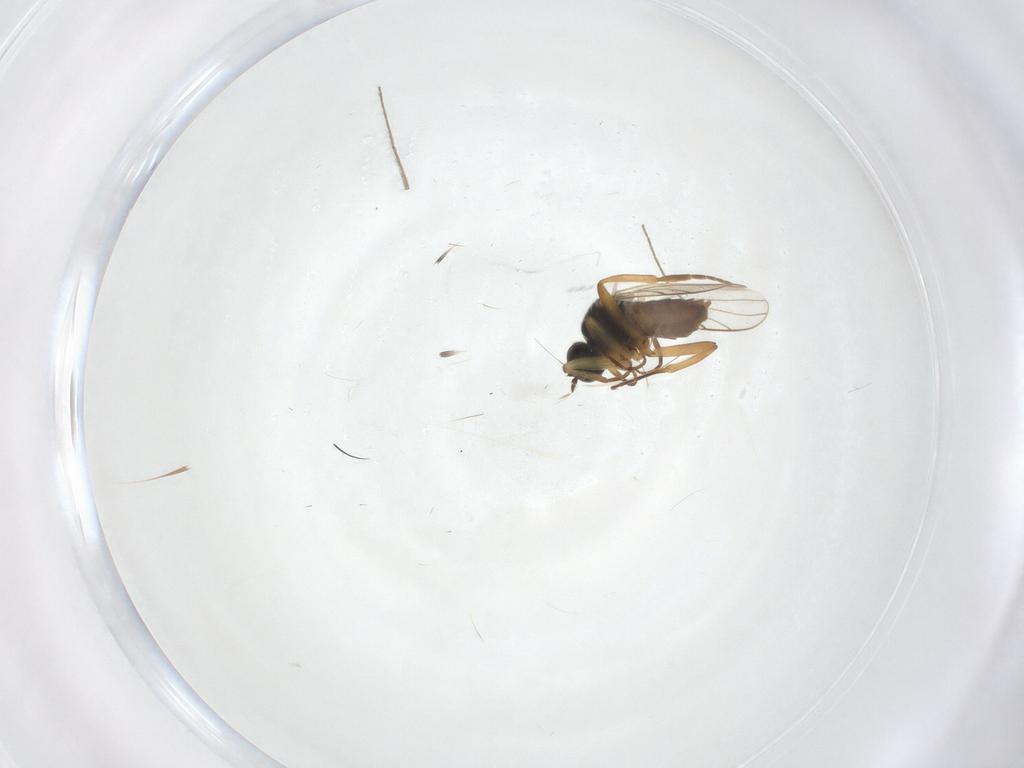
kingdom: Animalia
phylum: Arthropoda
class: Insecta
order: Diptera
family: Hybotidae
